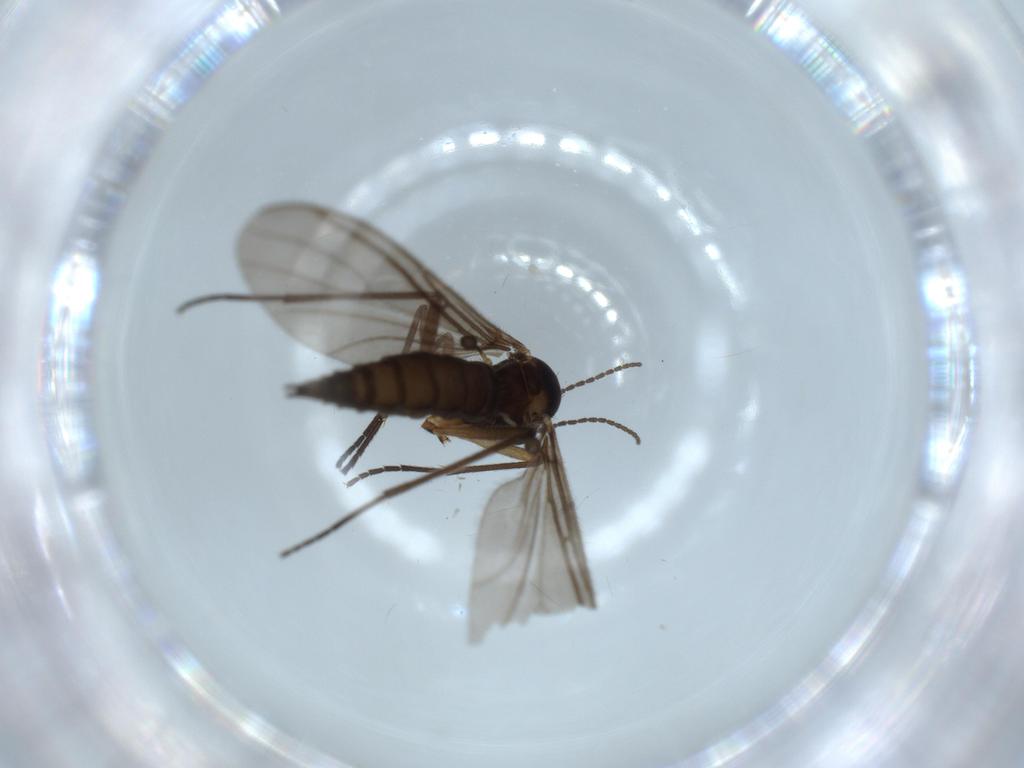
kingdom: Animalia
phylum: Arthropoda
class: Insecta
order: Diptera
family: Sciaridae
